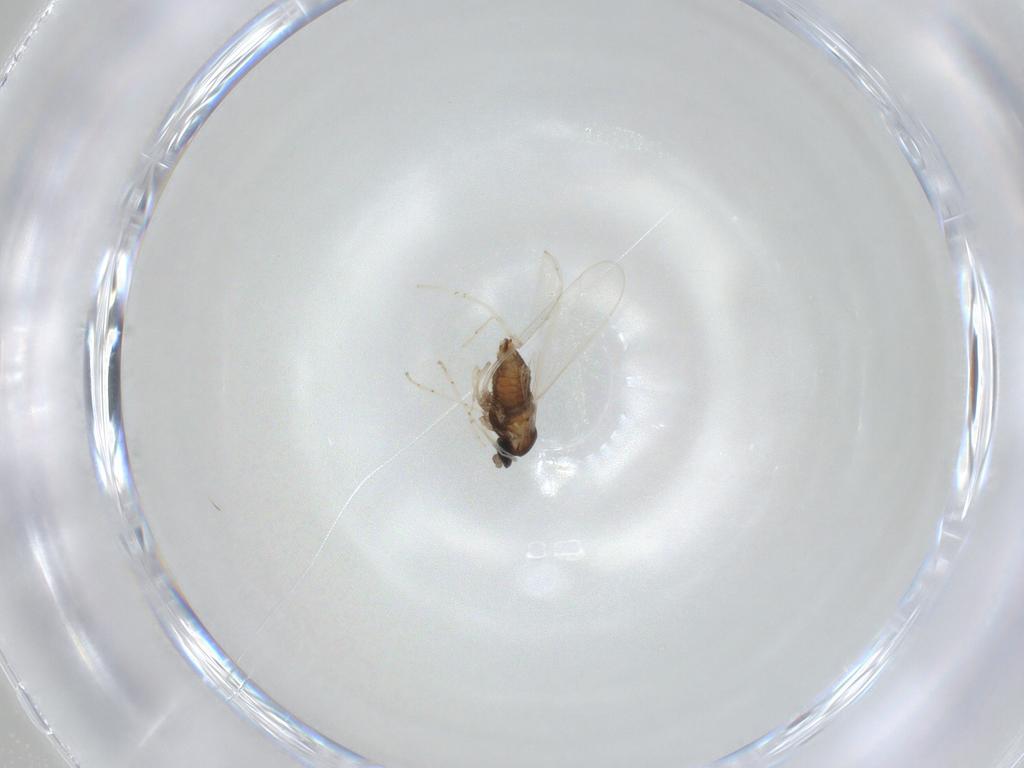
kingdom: Animalia
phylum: Arthropoda
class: Insecta
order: Diptera
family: Cecidomyiidae
